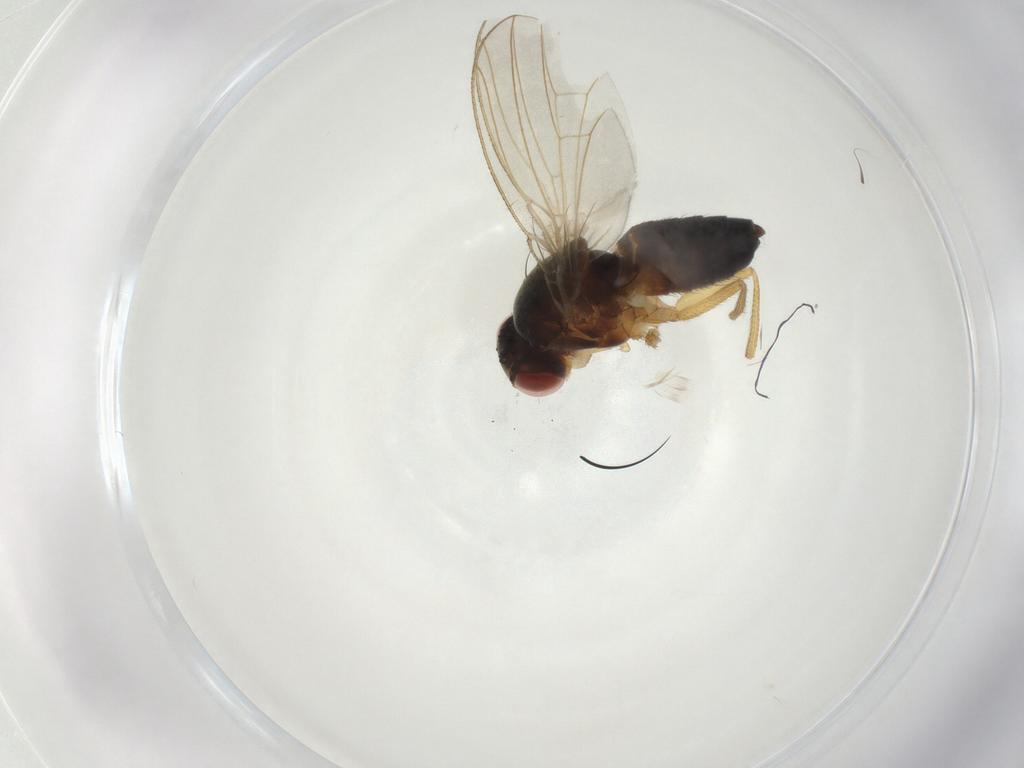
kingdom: Animalia
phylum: Arthropoda
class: Insecta
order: Diptera
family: Drosophilidae
